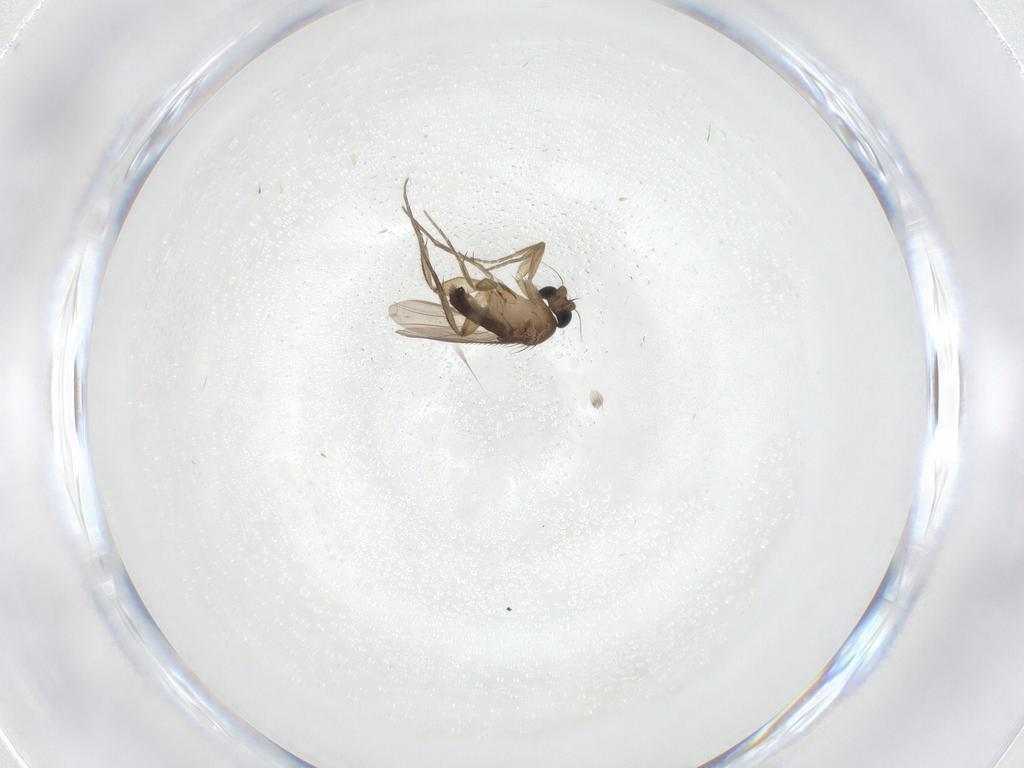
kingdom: Animalia
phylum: Arthropoda
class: Insecta
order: Diptera
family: Phoridae
